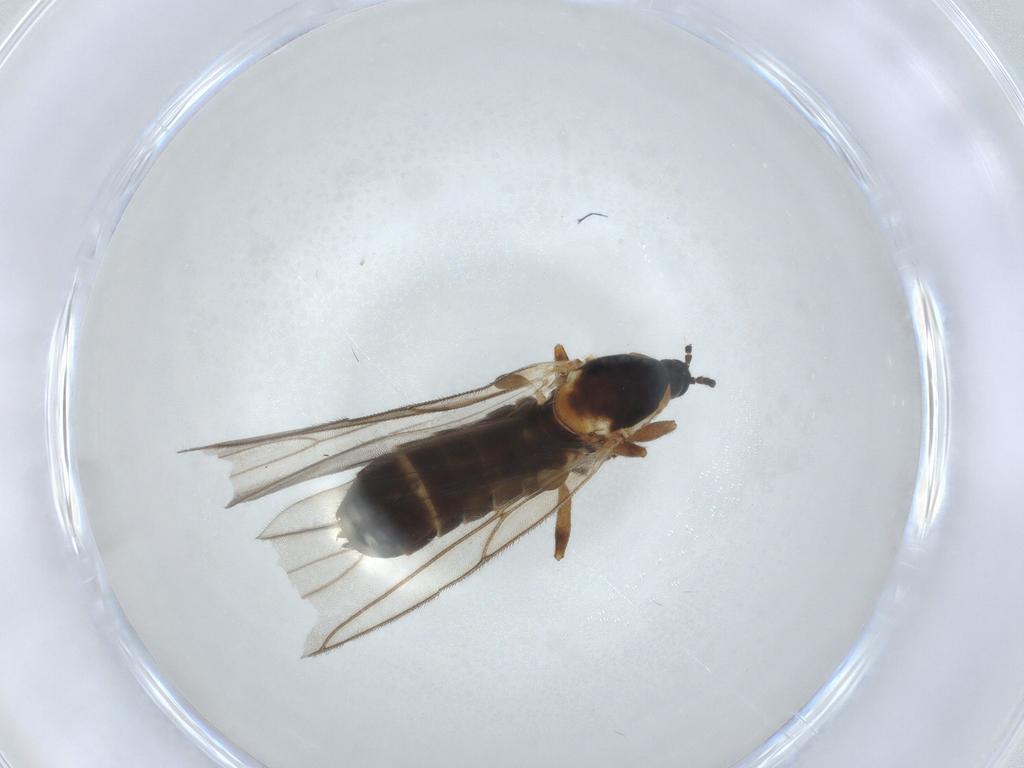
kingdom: Animalia
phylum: Arthropoda
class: Insecta
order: Diptera
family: Scatopsidae
